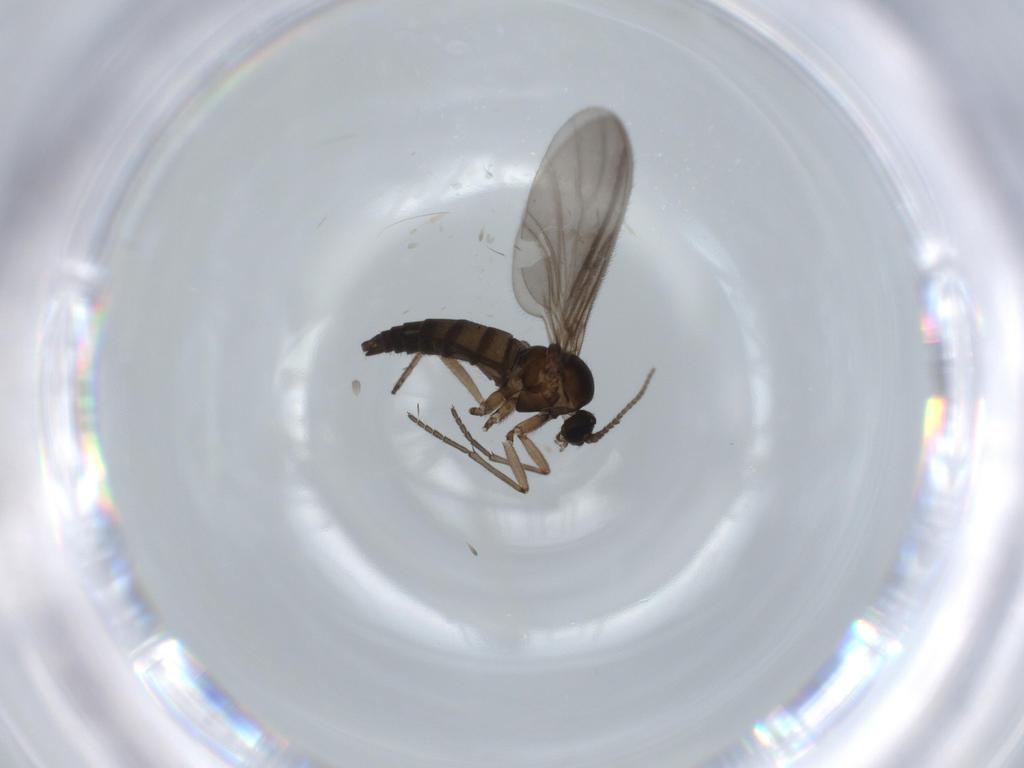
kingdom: Animalia
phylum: Arthropoda
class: Insecta
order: Diptera
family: Sciaridae
